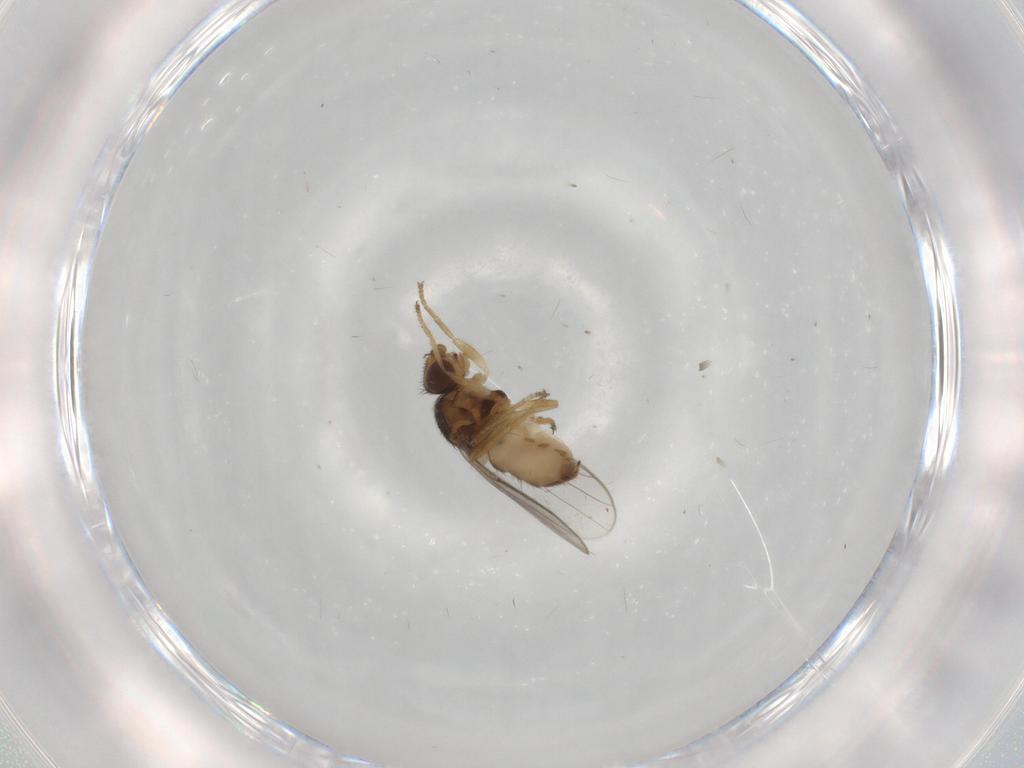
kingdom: Animalia
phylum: Arthropoda
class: Insecta
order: Diptera
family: Chloropidae
